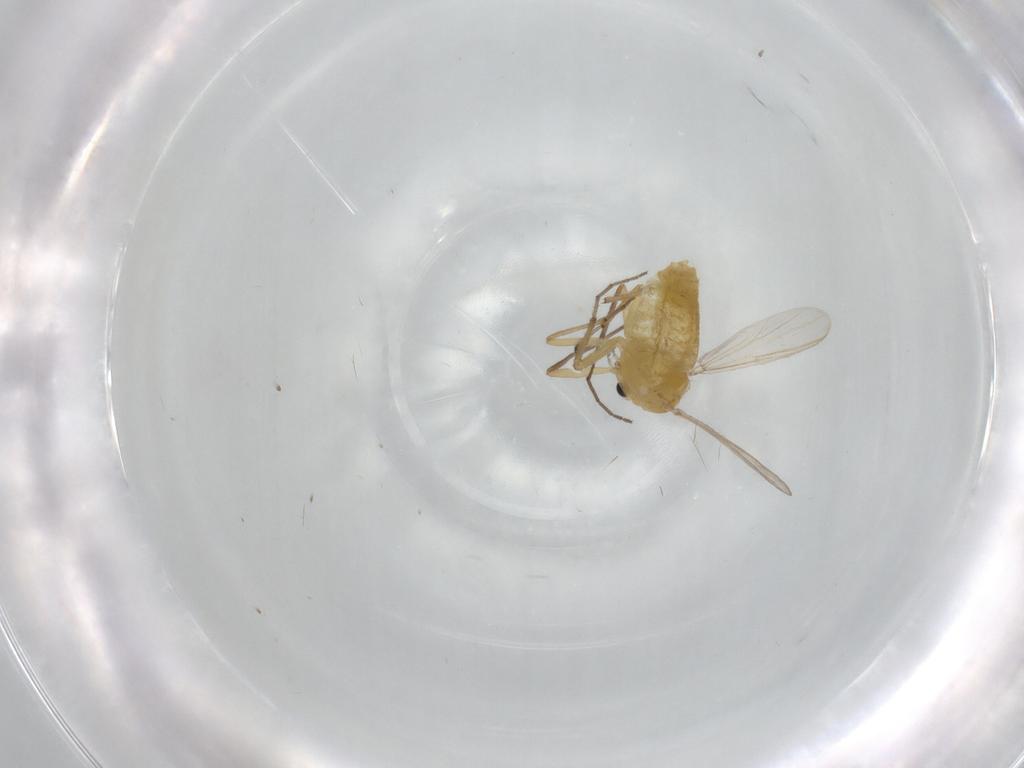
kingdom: Animalia
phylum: Arthropoda
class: Insecta
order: Diptera
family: Chironomidae
